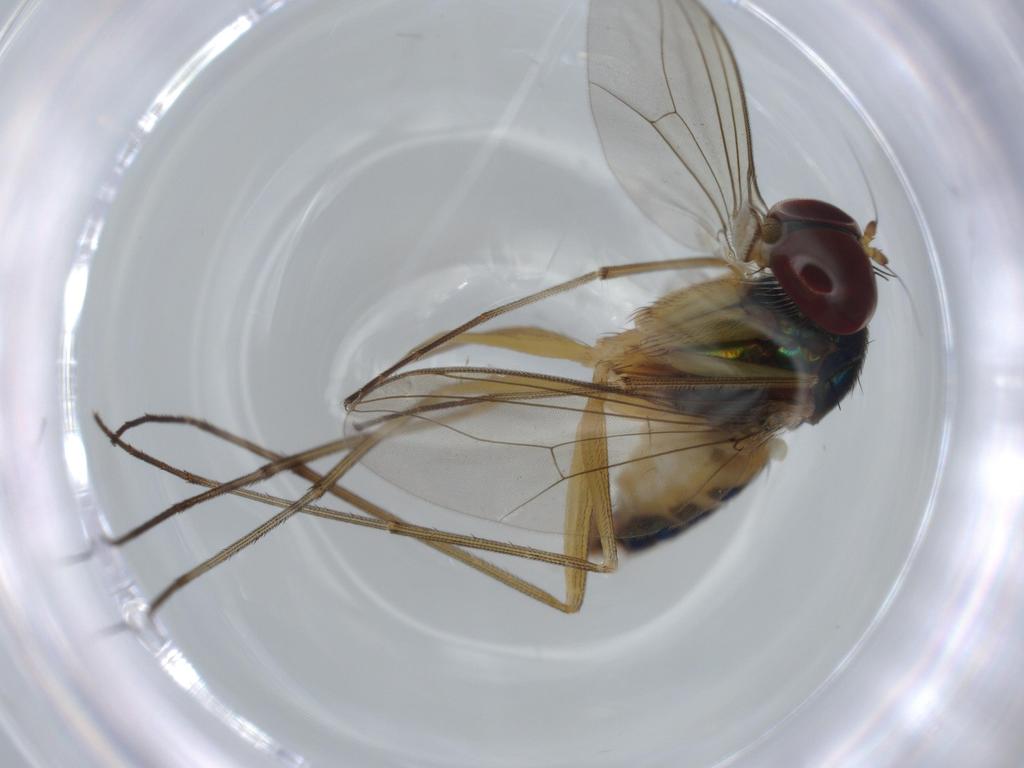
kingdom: Animalia
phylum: Arthropoda
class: Insecta
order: Diptera
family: Dolichopodidae
